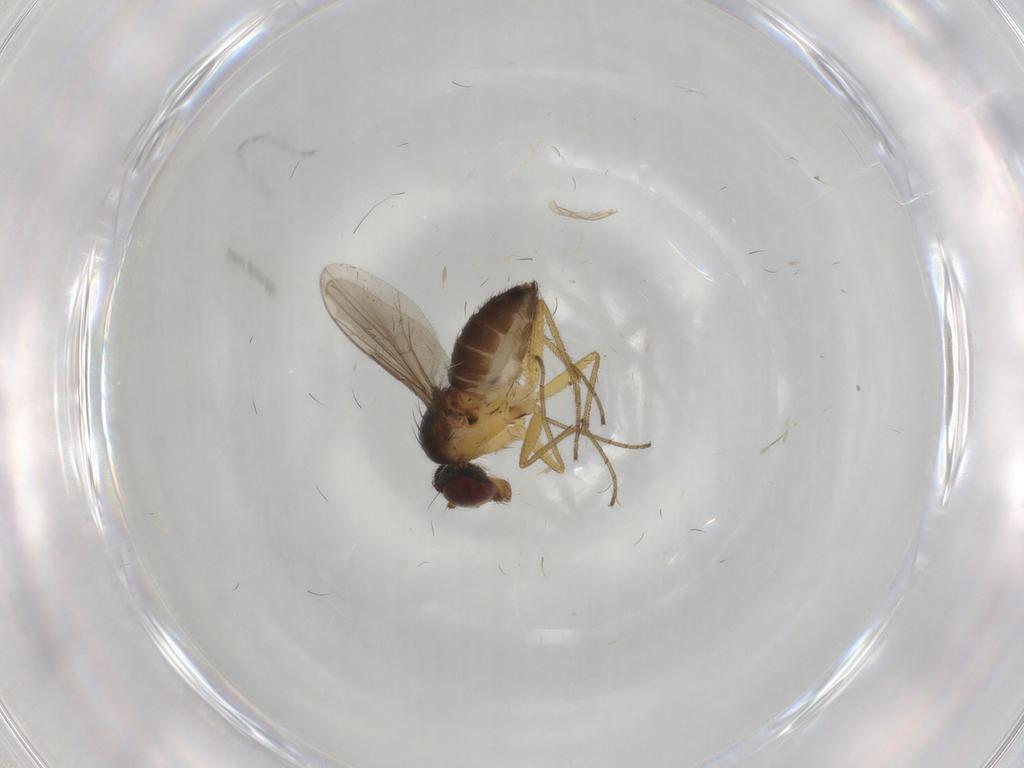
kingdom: Animalia
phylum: Arthropoda
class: Insecta
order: Diptera
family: Dolichopodidae
